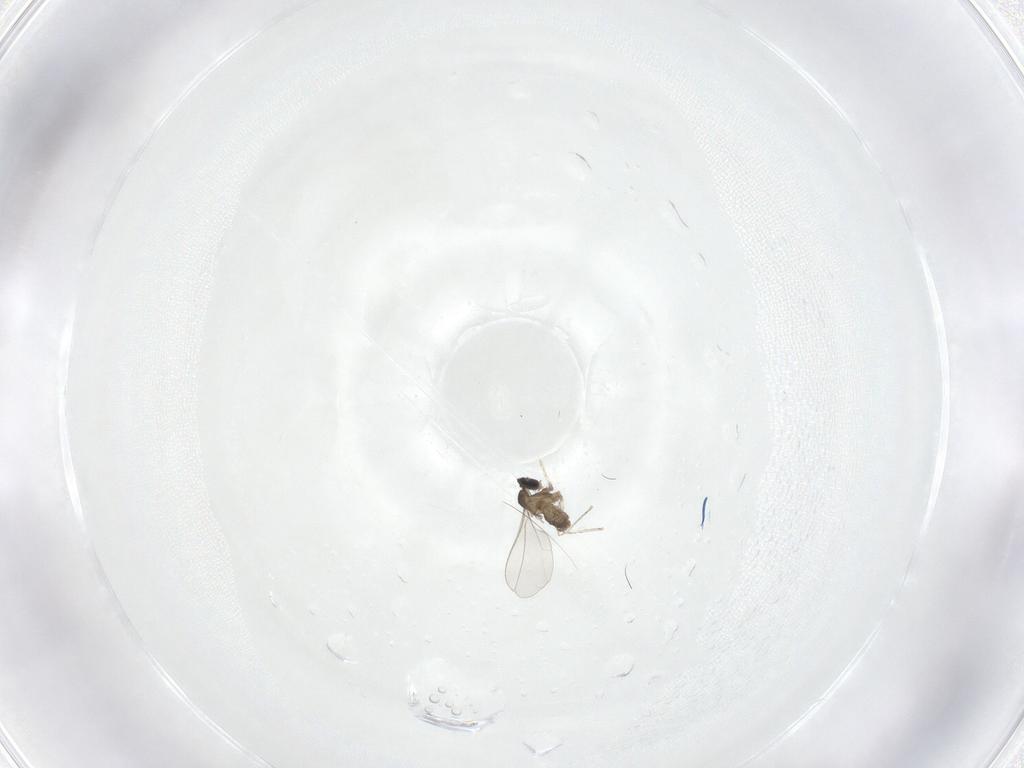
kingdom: Animalia
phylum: Arthropoda
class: Insecta
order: Diptera
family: Cecidomyiidae
